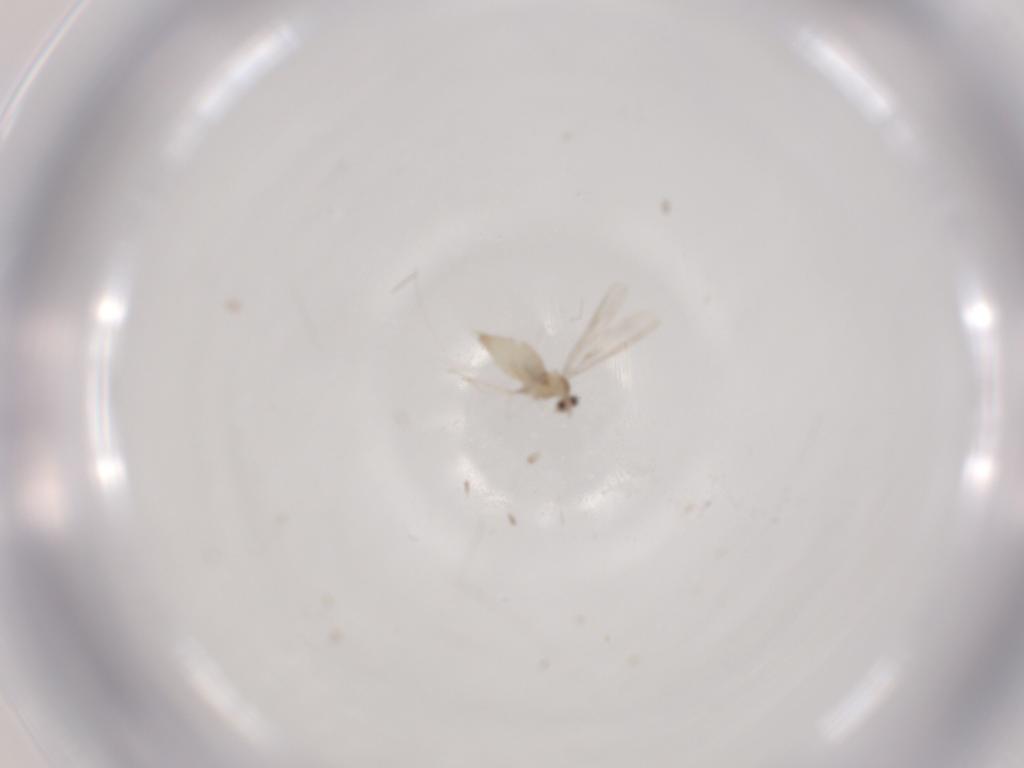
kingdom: Animalia
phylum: Arthropoda
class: Insecta
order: Diptera
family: Cecidomyiidae
